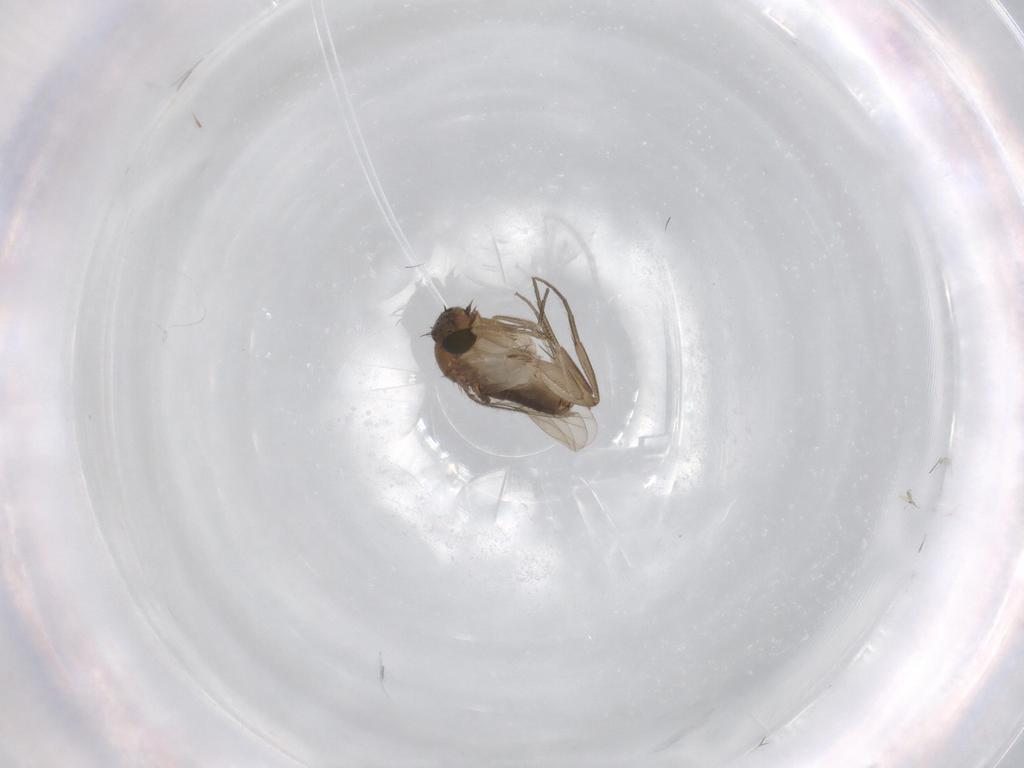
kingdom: Animalia
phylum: Arthropoda
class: Insecta
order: Diptera
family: Phoridae
